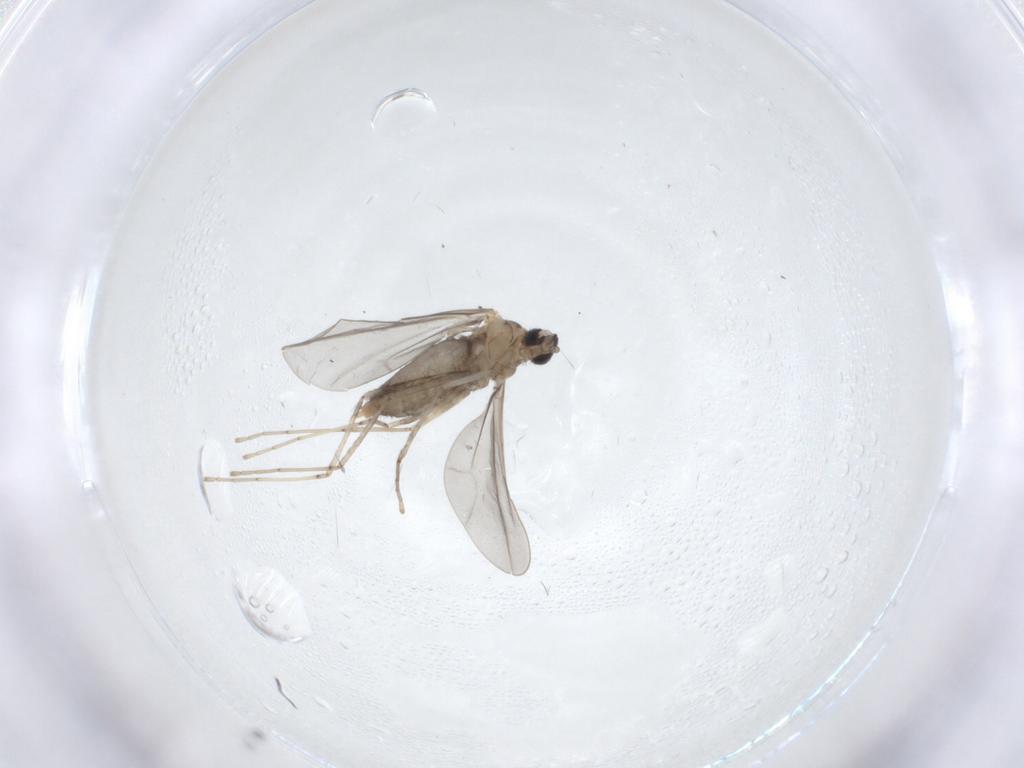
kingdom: Animalia
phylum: Arthropoda
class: Insecta
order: Diptera
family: Cecidomyiidae
